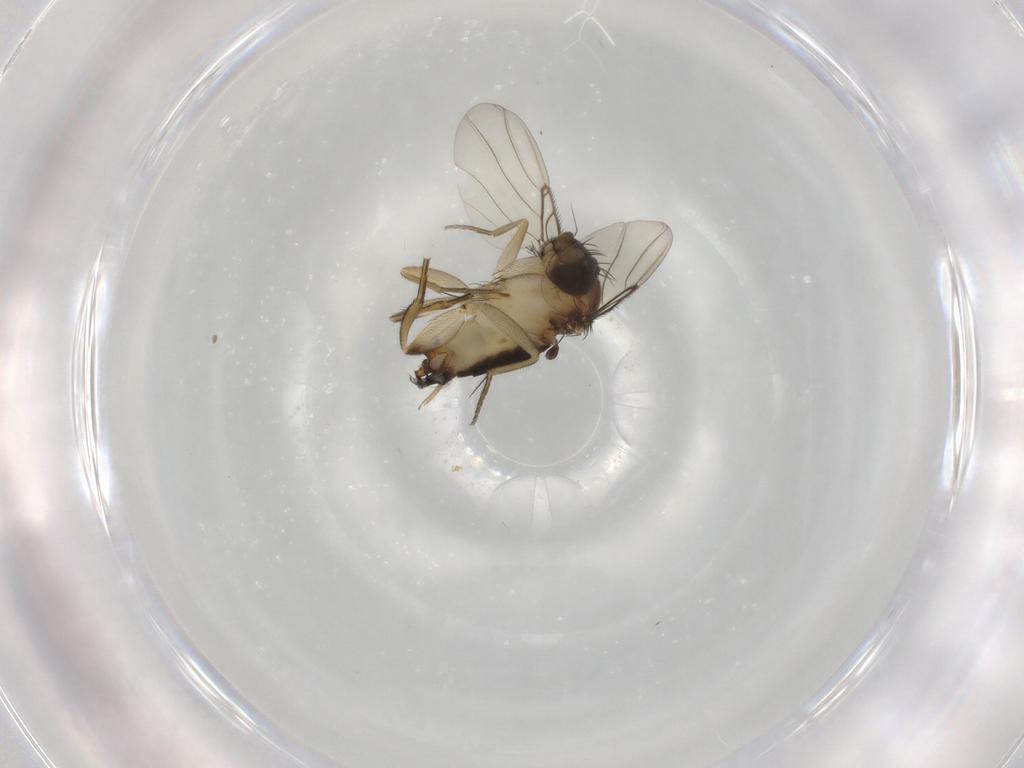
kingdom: Animalia
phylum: Arthropoda
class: Insecta
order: Diptera
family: Phoridae
